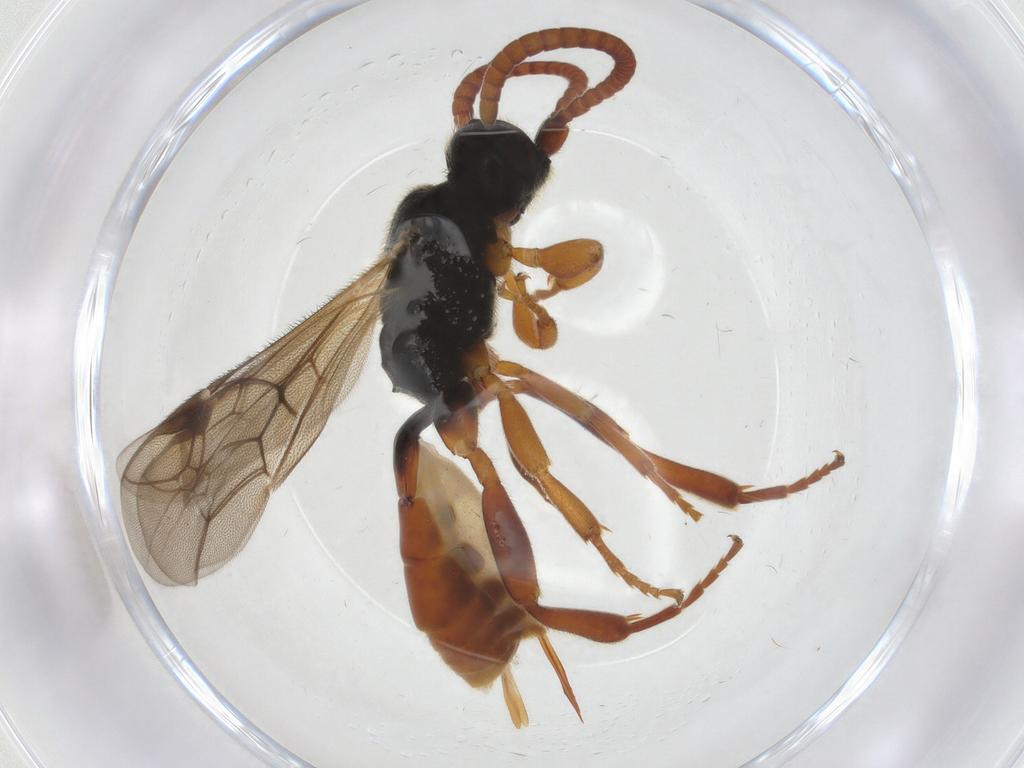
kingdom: Animalia
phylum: Arthropoda
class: Insecta
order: Hymenoptera
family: Ichneumonidae
